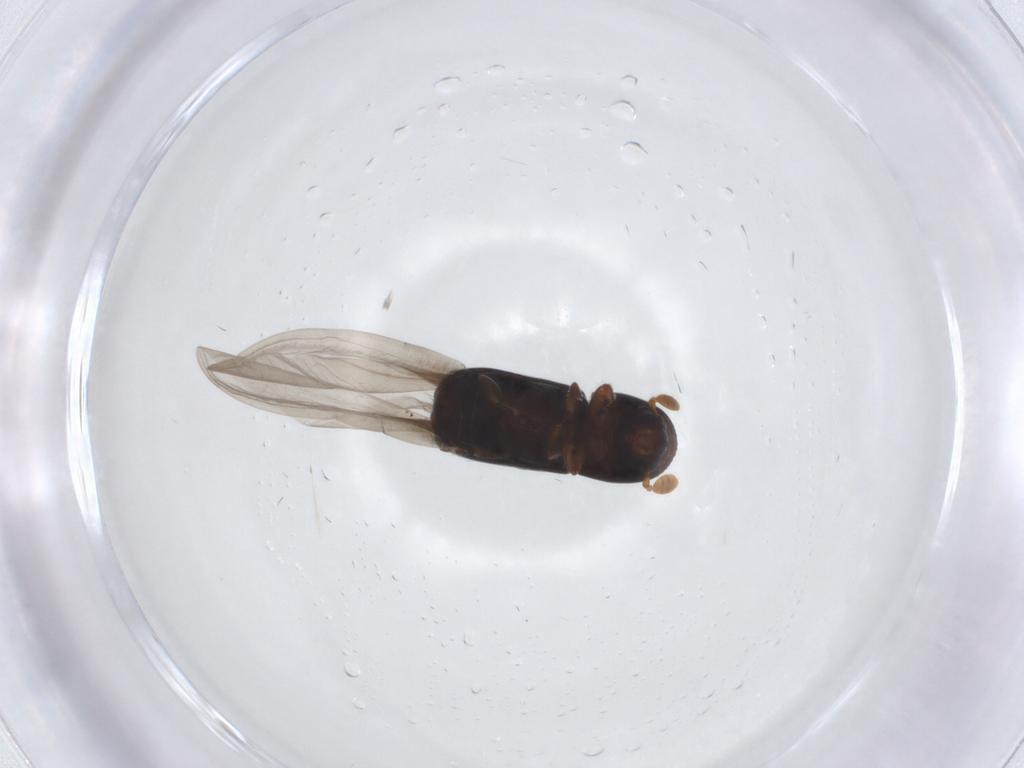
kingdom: Animalia
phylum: Arthropoda
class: Insecta
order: Coleoptera
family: Curculionidae
